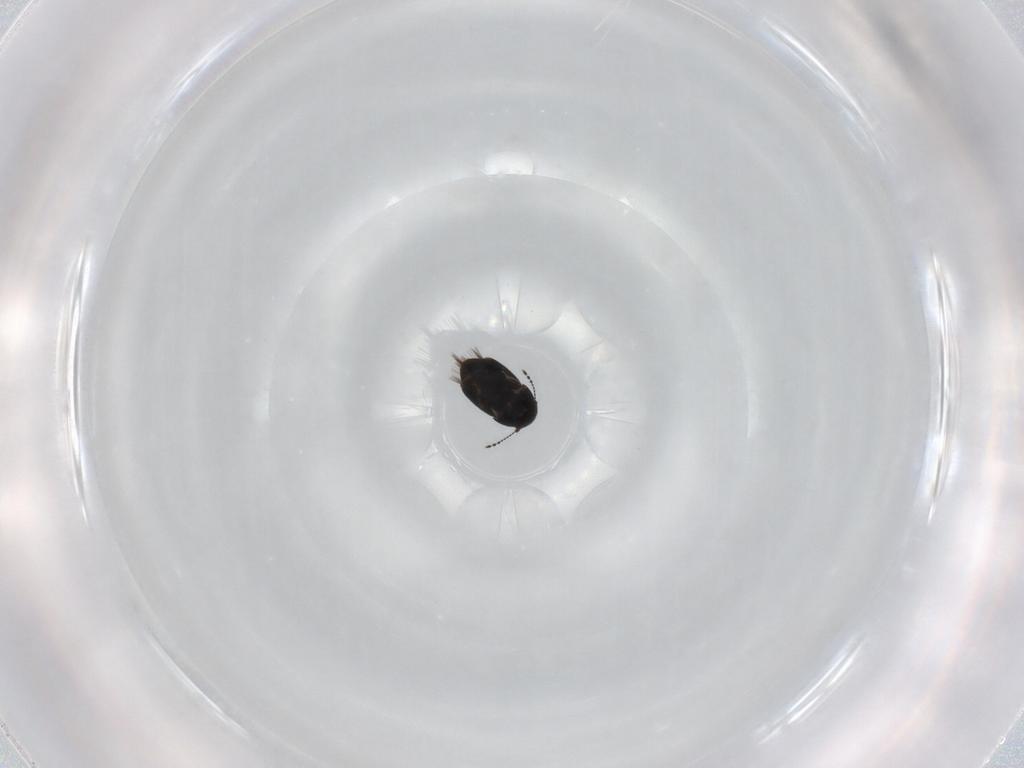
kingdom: Animalia
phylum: Arthropoda
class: Insecta
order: Coleoptera
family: Ptiliidae
